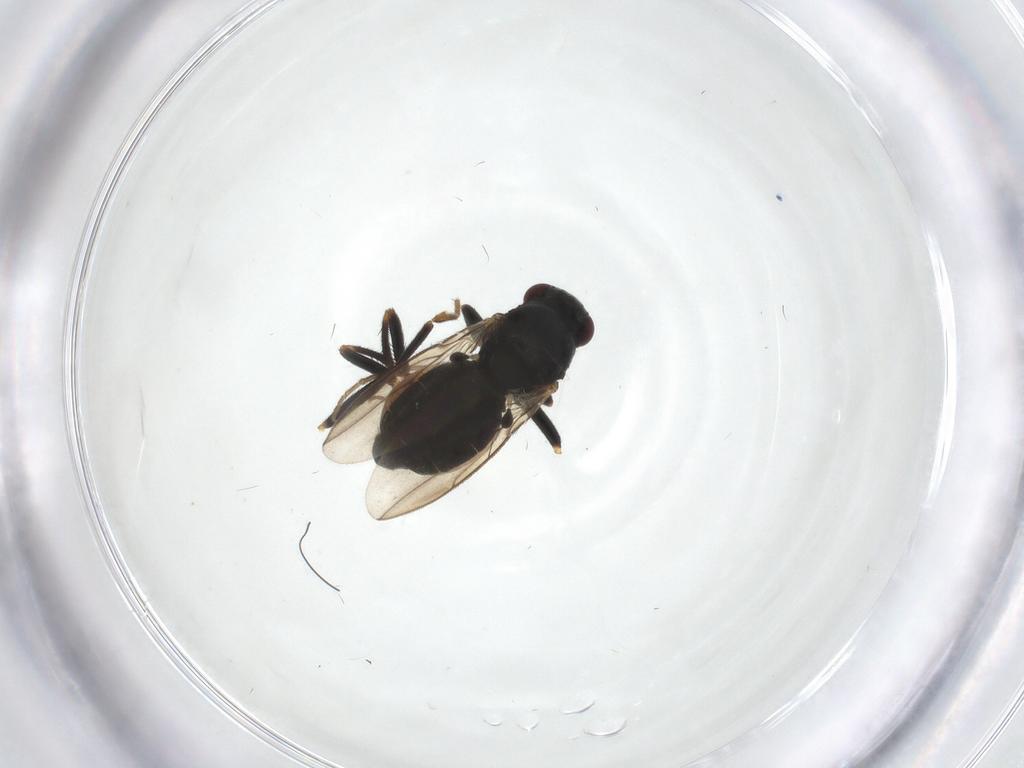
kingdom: Animalia
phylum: Arthropoda
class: Insecta
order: Diptera
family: Sphaeroceridae
